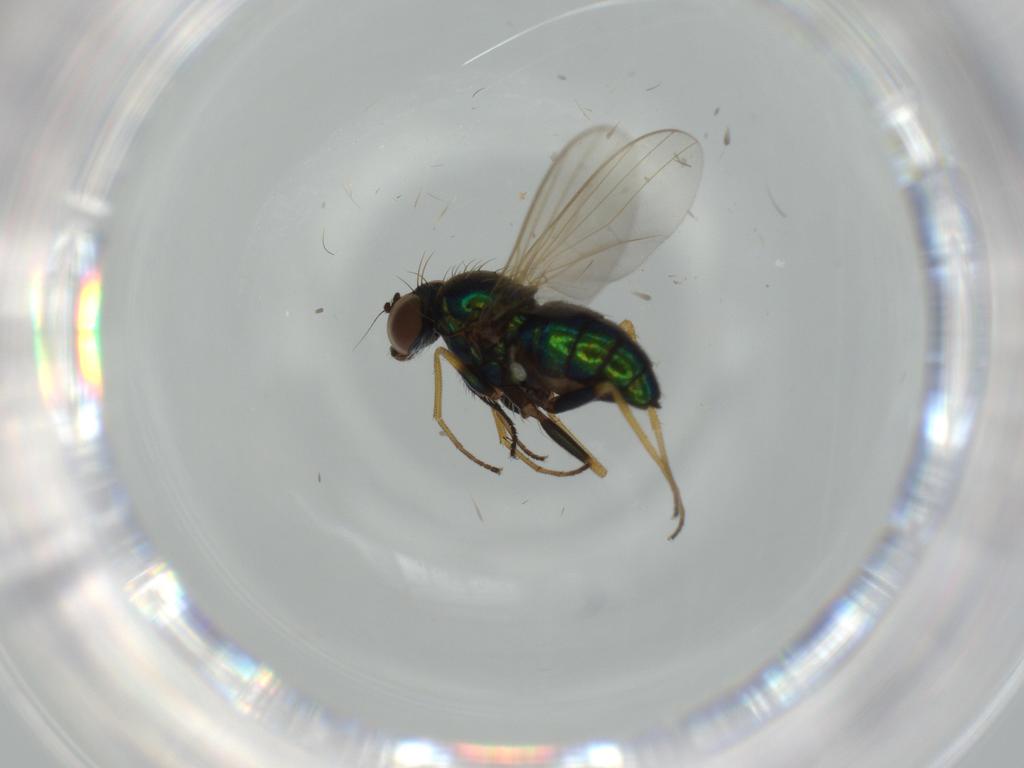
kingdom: Animalia
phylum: Arthropoda
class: Insecta
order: Diptera
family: Dolichopodidae
